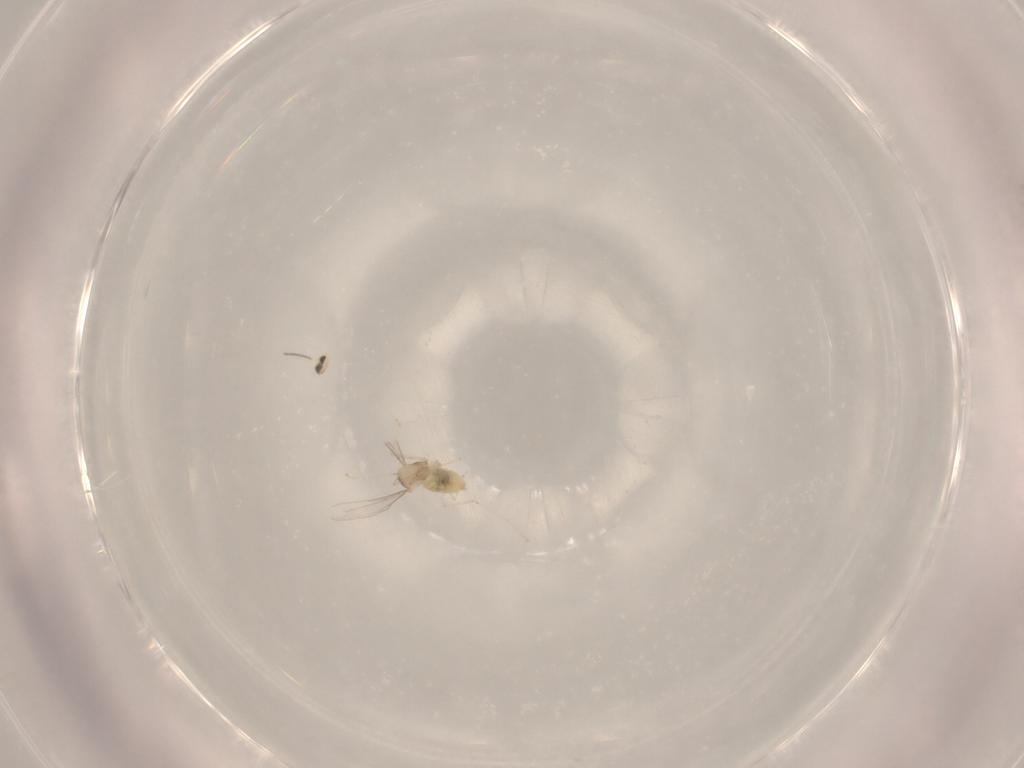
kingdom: Animalia
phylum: Arthropoda
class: Insecta
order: Diptera
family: Cecidomyiidae
